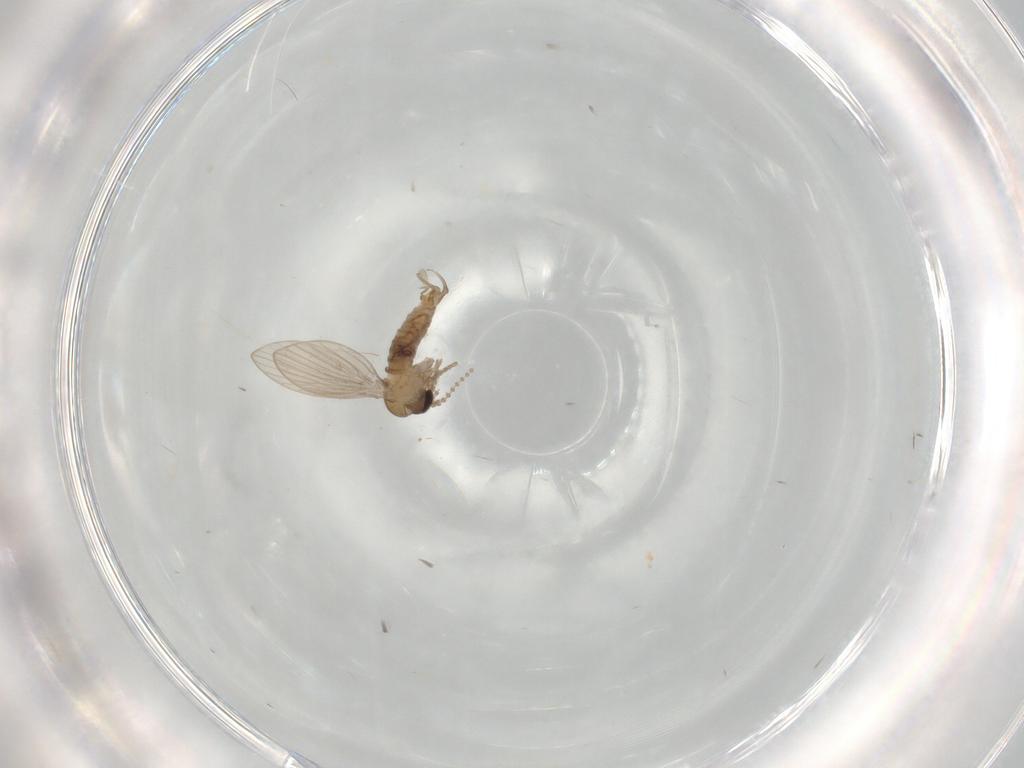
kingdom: Animalia
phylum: Arthropoda
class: Insecta
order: Diptera
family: Psychodidae
